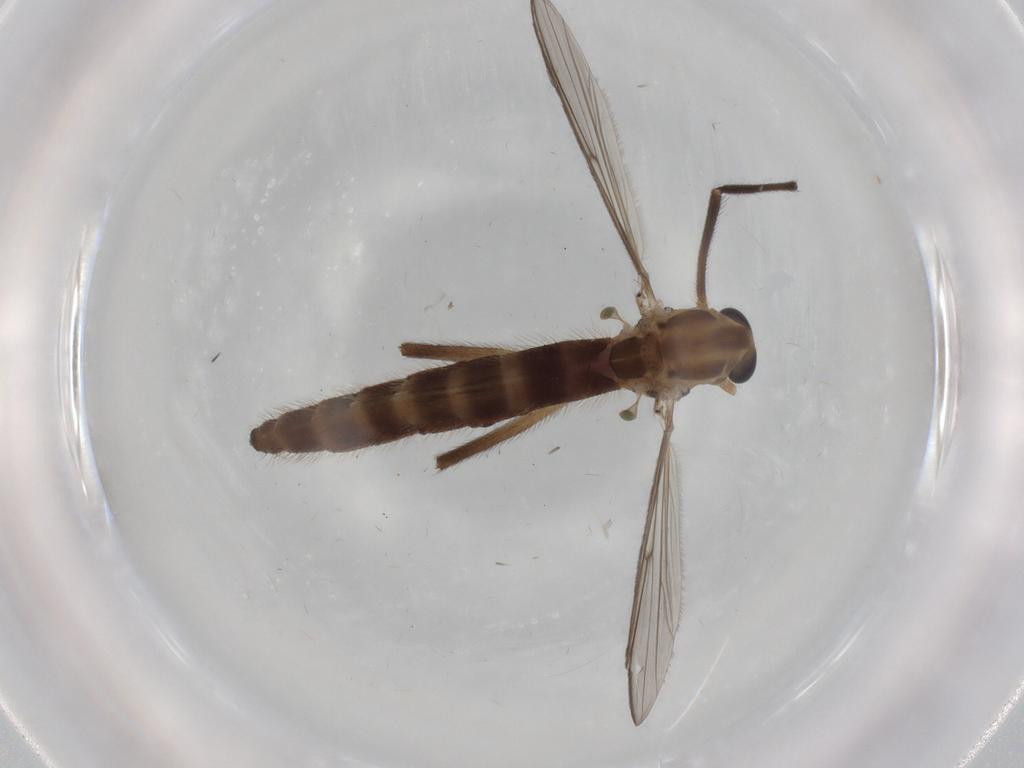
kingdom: Animalia
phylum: Arthropoda
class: Insecta
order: Diptera
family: Chironomidae
